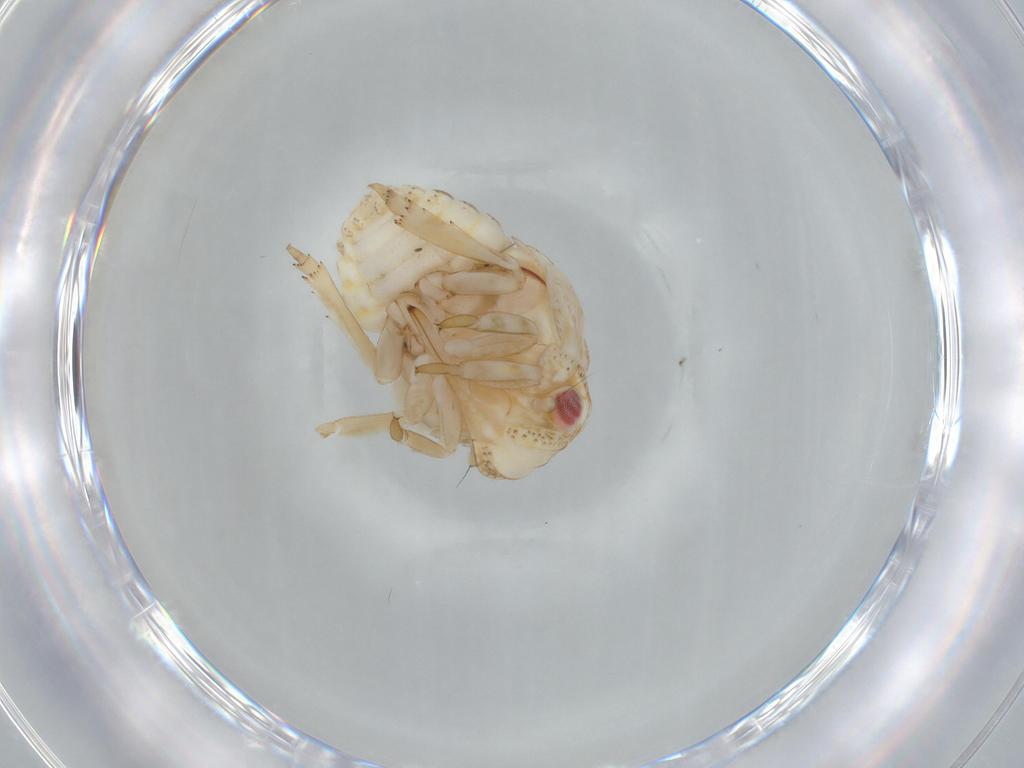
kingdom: Animalia
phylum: Arthropoda
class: Insecta
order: Hemiptera
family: Acanaloniidae
